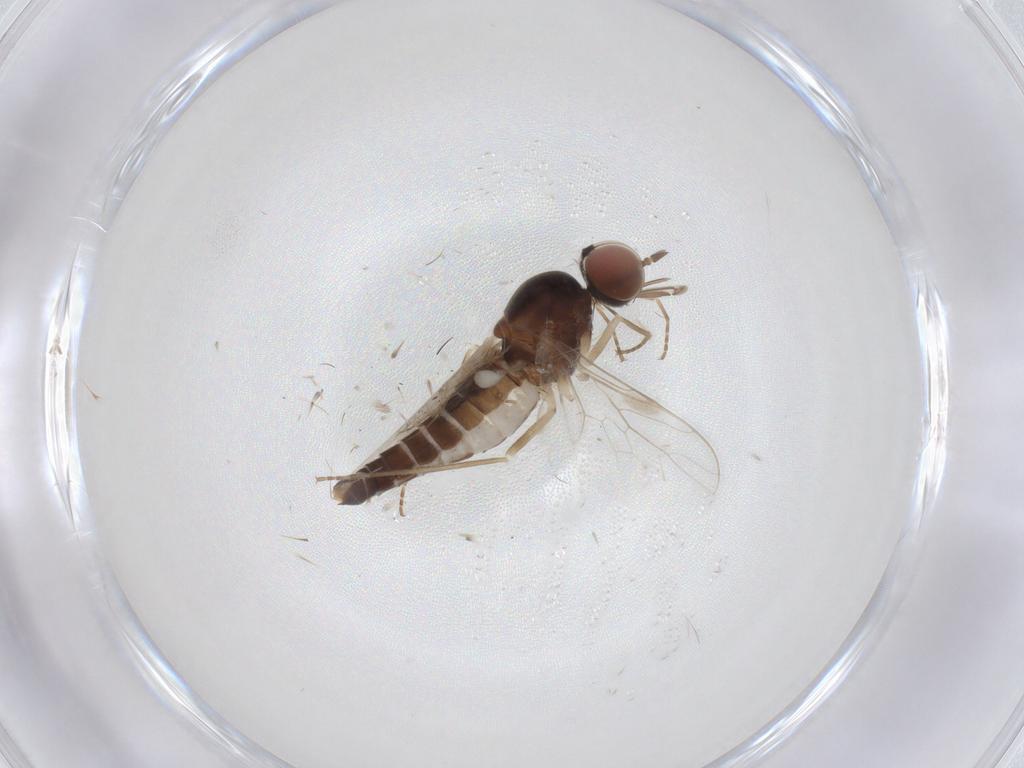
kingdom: Animalia
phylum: Arthropoda
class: Insecta
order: Diptera
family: Scenopinidae
